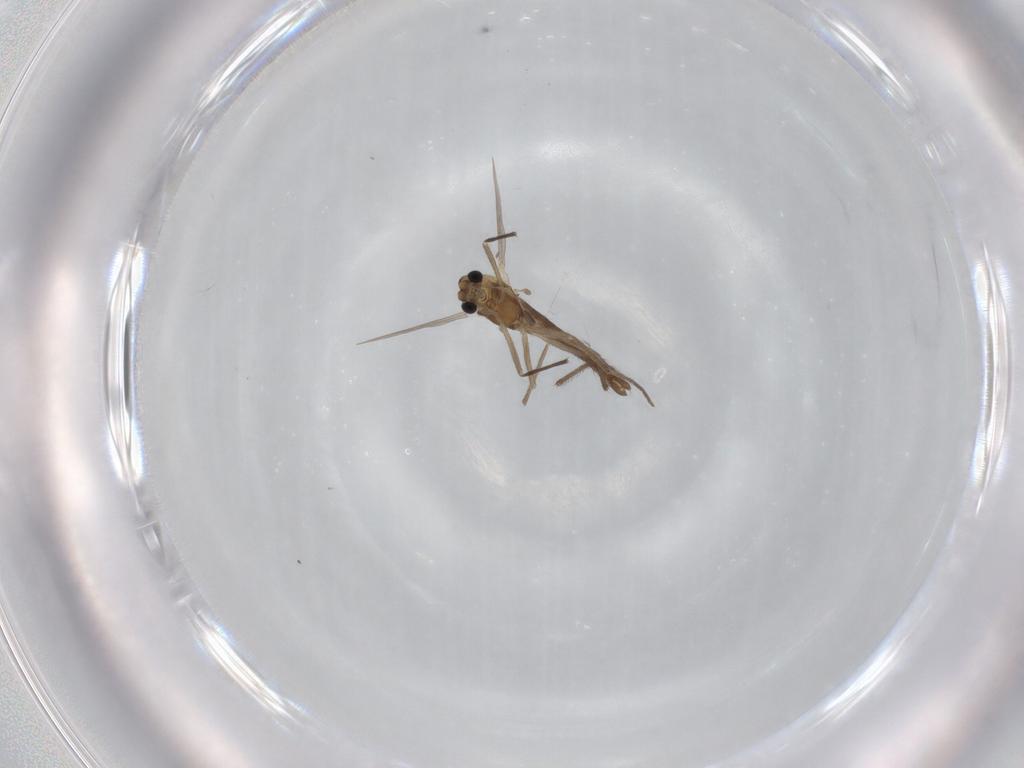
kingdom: Animalia
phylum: Arthropoda
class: Insecta
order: Diptera
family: Chironomidae
